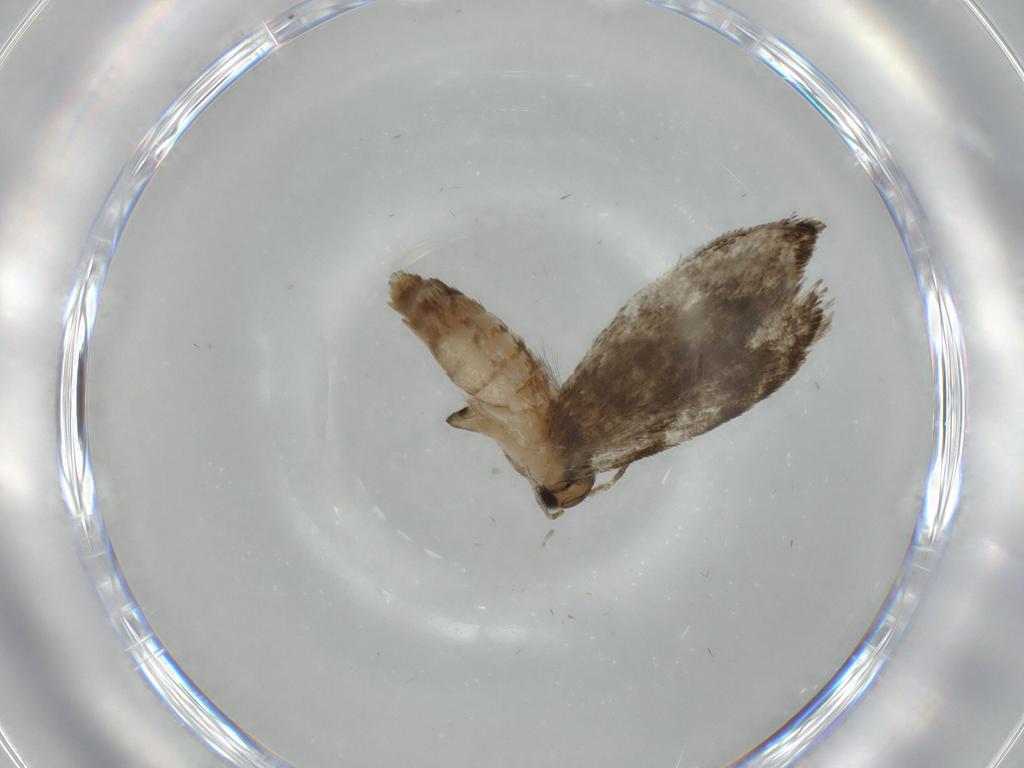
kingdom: Animalia
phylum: Arthropoda
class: Insecta
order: Lepidoptera
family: Tineidae
